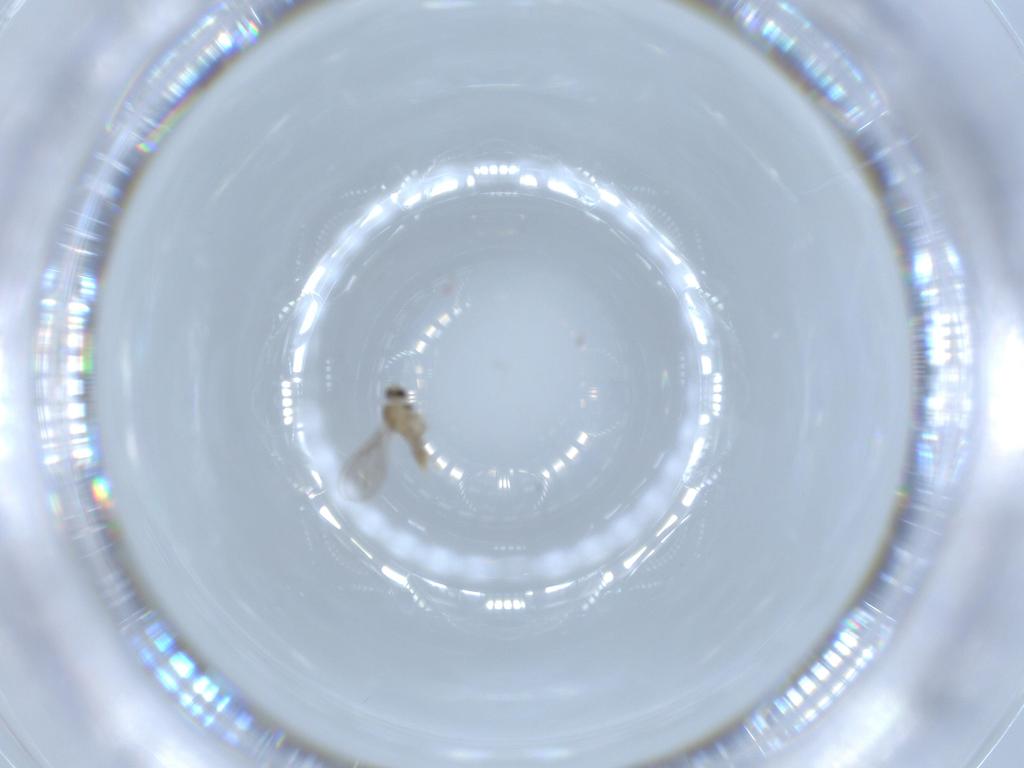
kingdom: Animalia
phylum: Arthropoda
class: Insecta
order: Diptera
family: Cecidomyiidae
